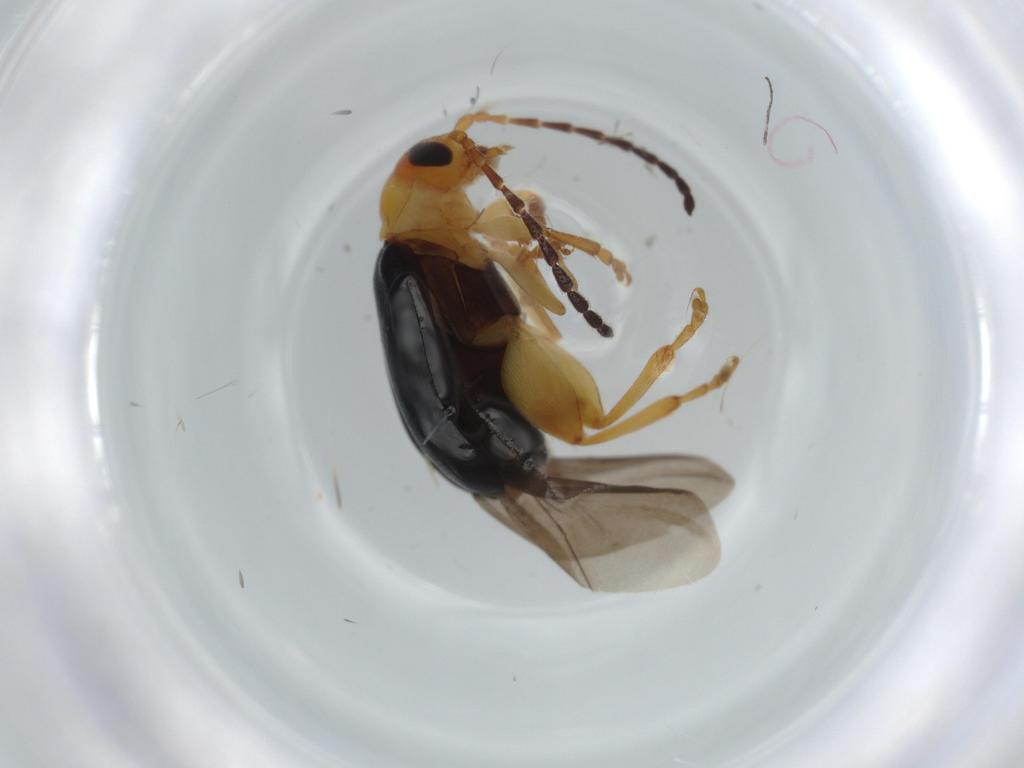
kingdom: Animalia
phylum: Arthropoda
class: Insecta
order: Coleoptera
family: Chrysomelidae
